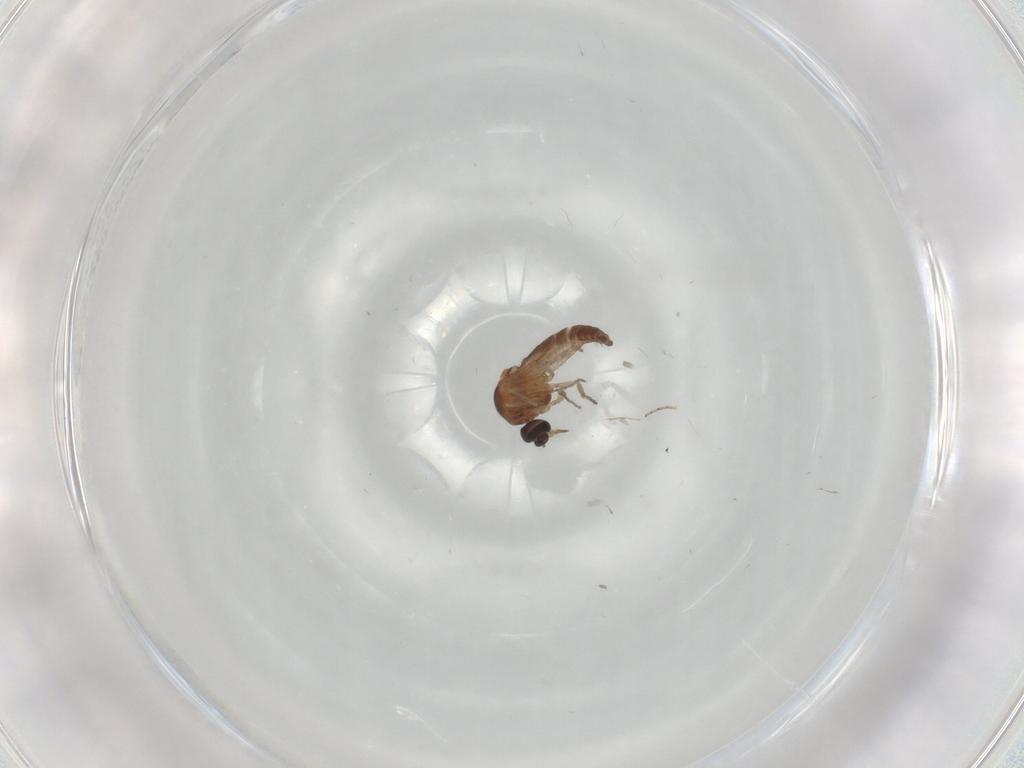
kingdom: Animalia
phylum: Arthropoda
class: Insecta
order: Diptera
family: Ceratopogonidae
